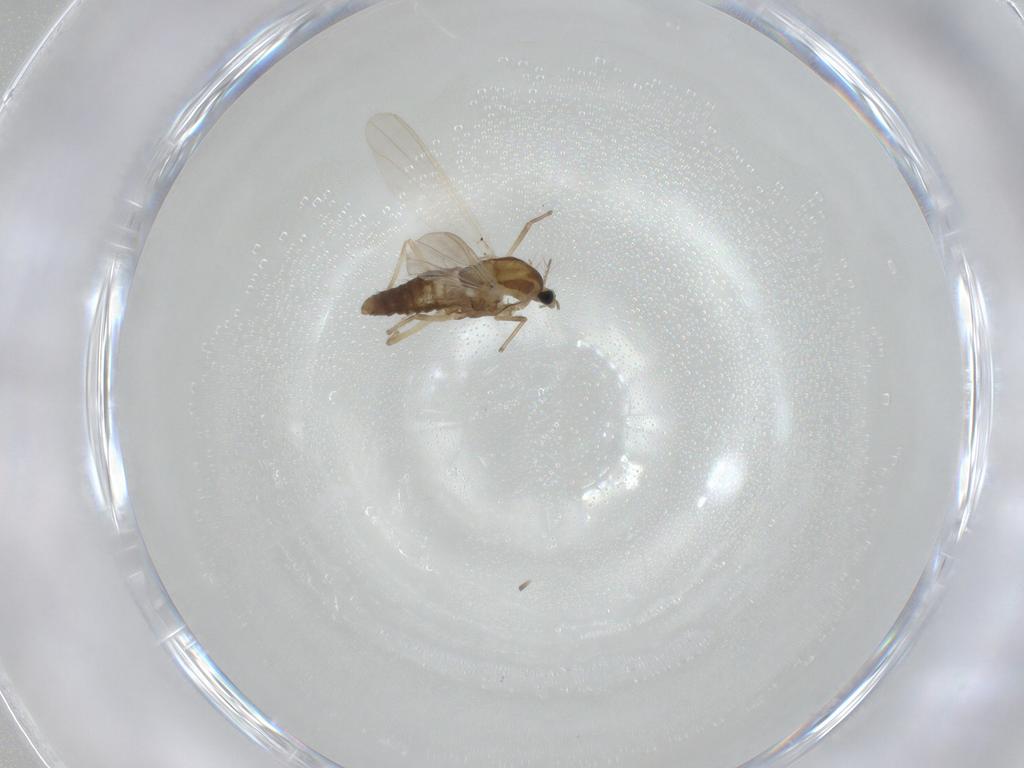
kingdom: Animalia
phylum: Arthropoda
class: Insecta
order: Diptera
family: Sciaridae
